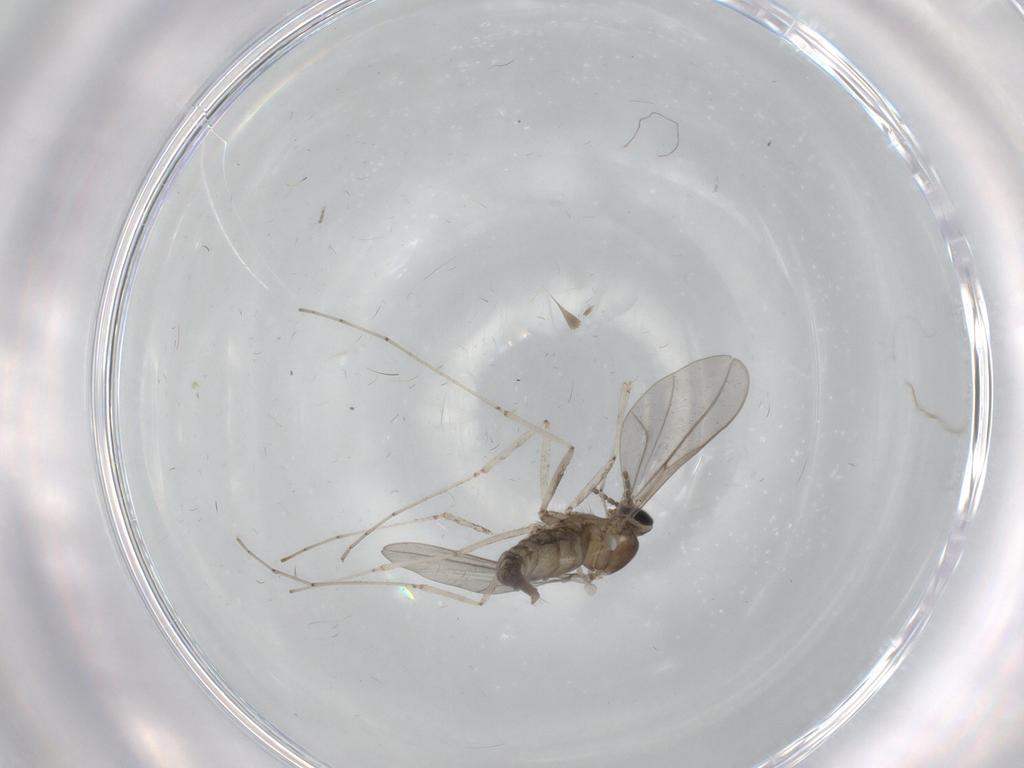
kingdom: Animalia
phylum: Arthropoda
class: Insecta
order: Diptera
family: Cecidomyiidae
